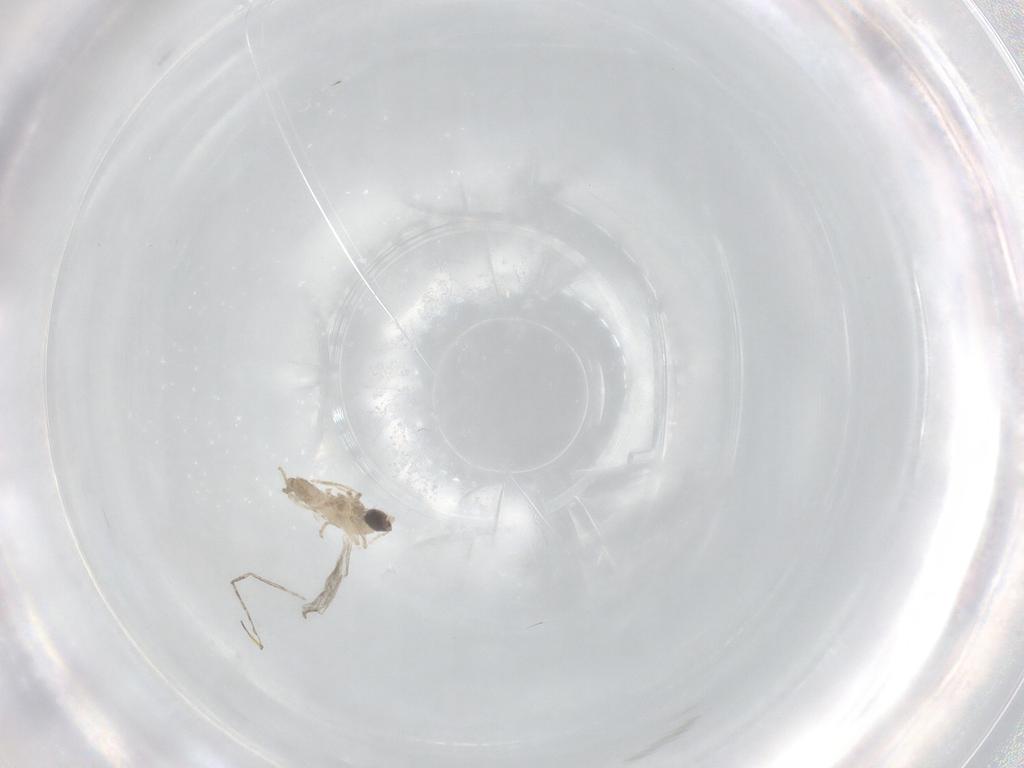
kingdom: Animalia
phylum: Arthropoda
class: Insecta
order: Diptera
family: Cecidomyiidae
